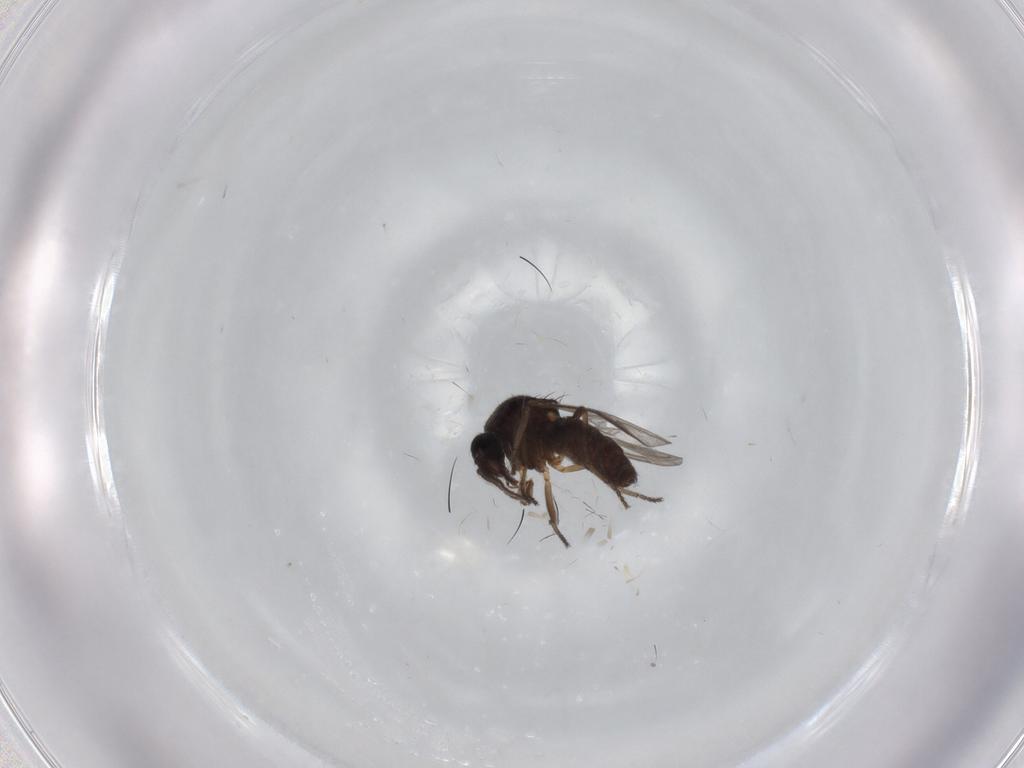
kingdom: Animalia
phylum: Arthropoda
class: Insecta
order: Diptera
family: Ceratopogonidae
